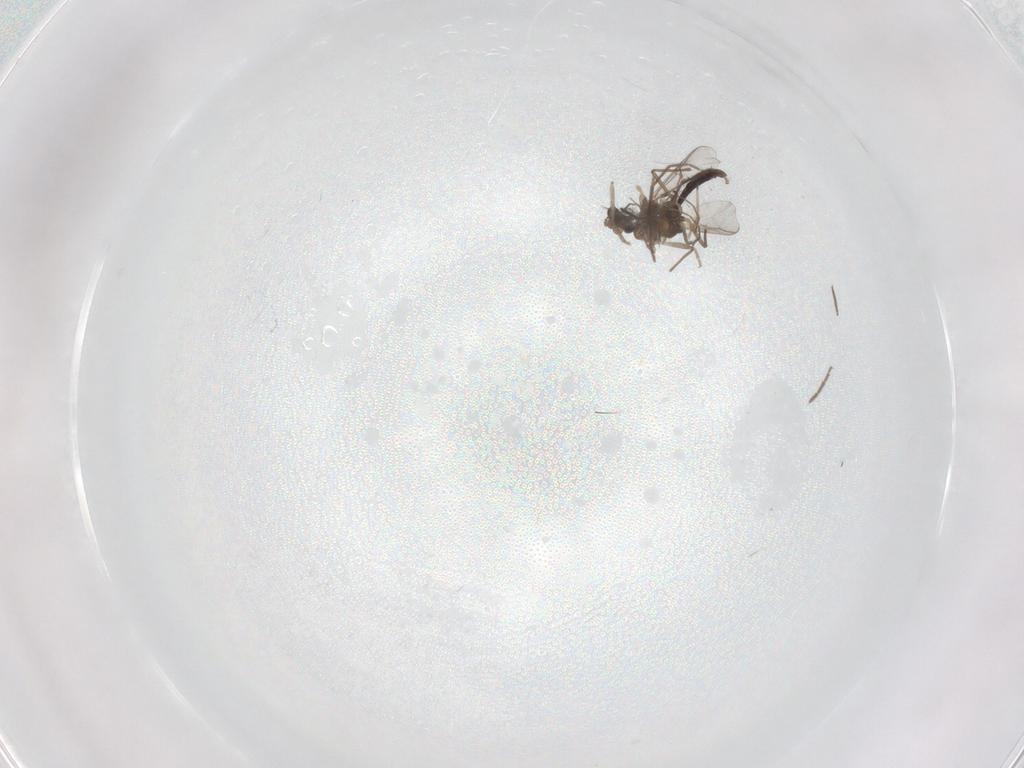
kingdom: Animalia
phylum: Arthropoda
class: Insecta
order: Diptera
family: Chironomidae
